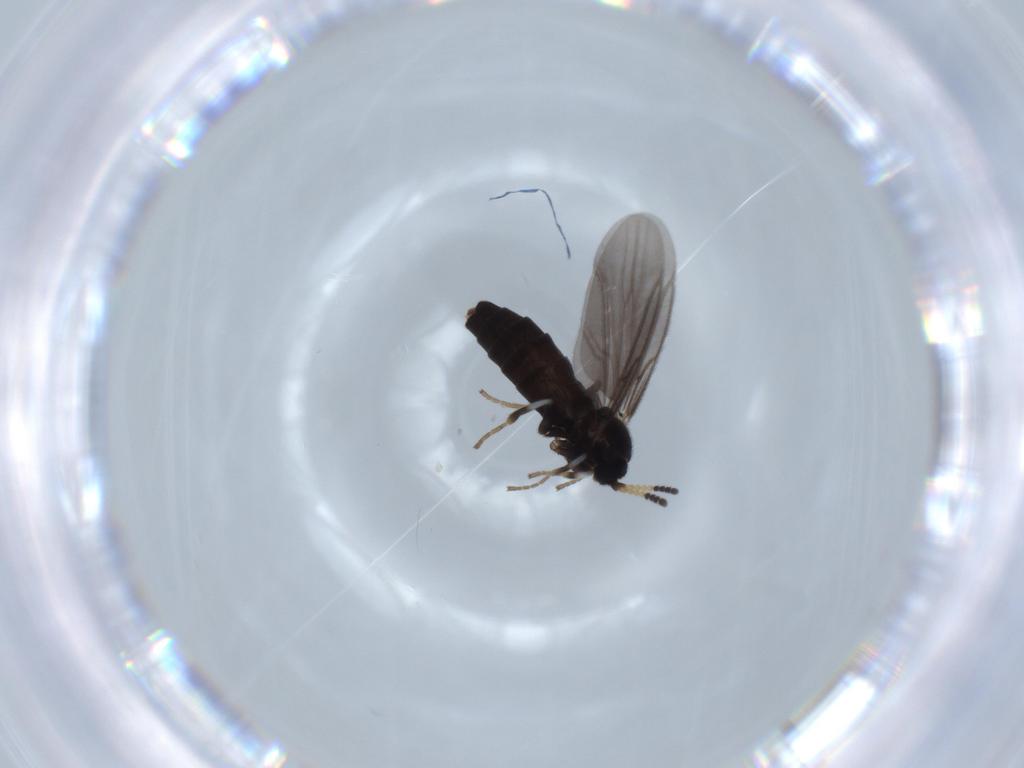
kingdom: Animalia
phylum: Arthropoda
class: Insecta
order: Diptera
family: Scatopsidae
